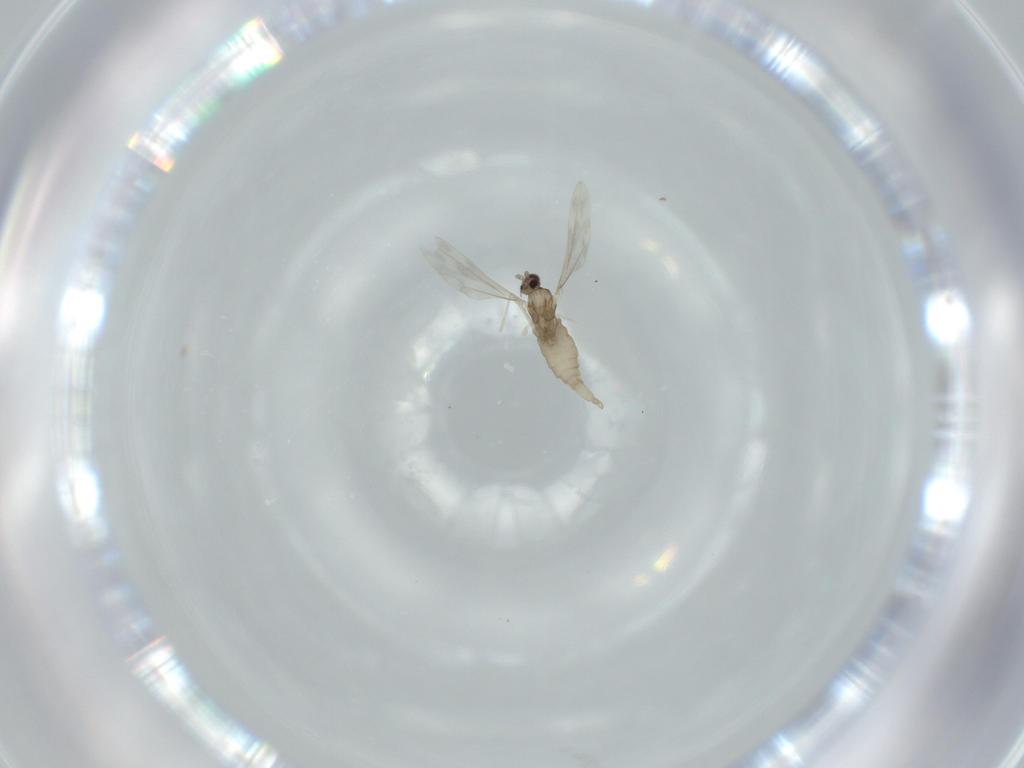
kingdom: Animalia
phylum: Arthropoda
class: Insecta
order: Diptera
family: Cecidomyiidae
